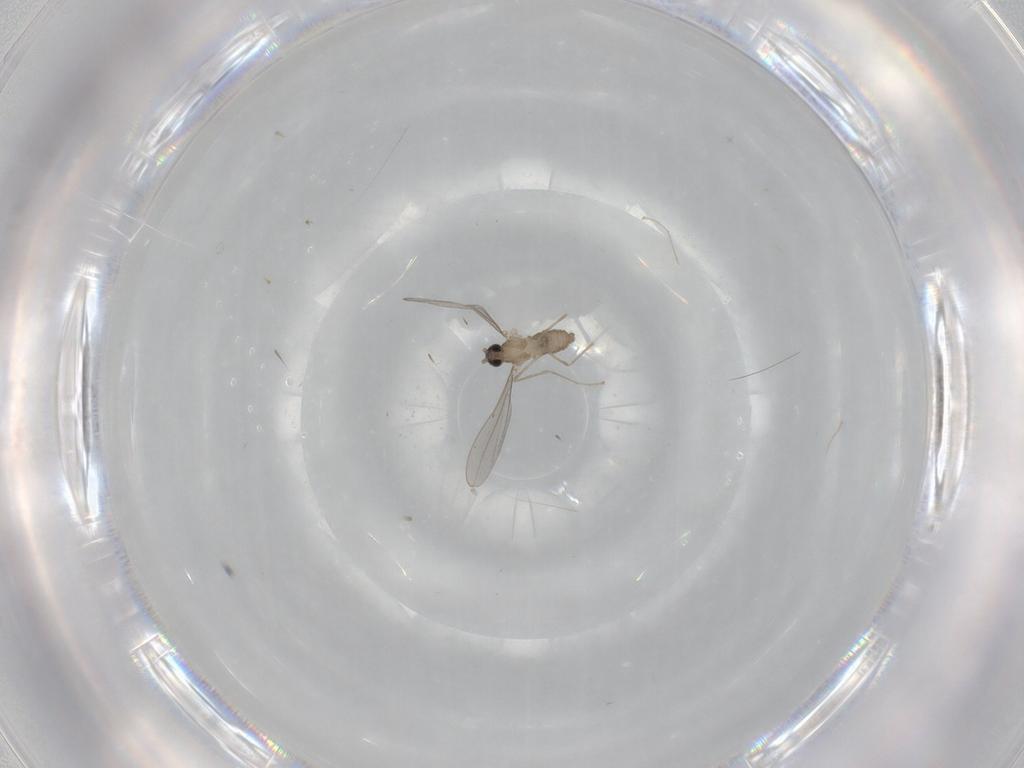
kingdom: Animalia
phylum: Arthropoda
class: Insecta
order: Diptera
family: Cecidomyiidae
